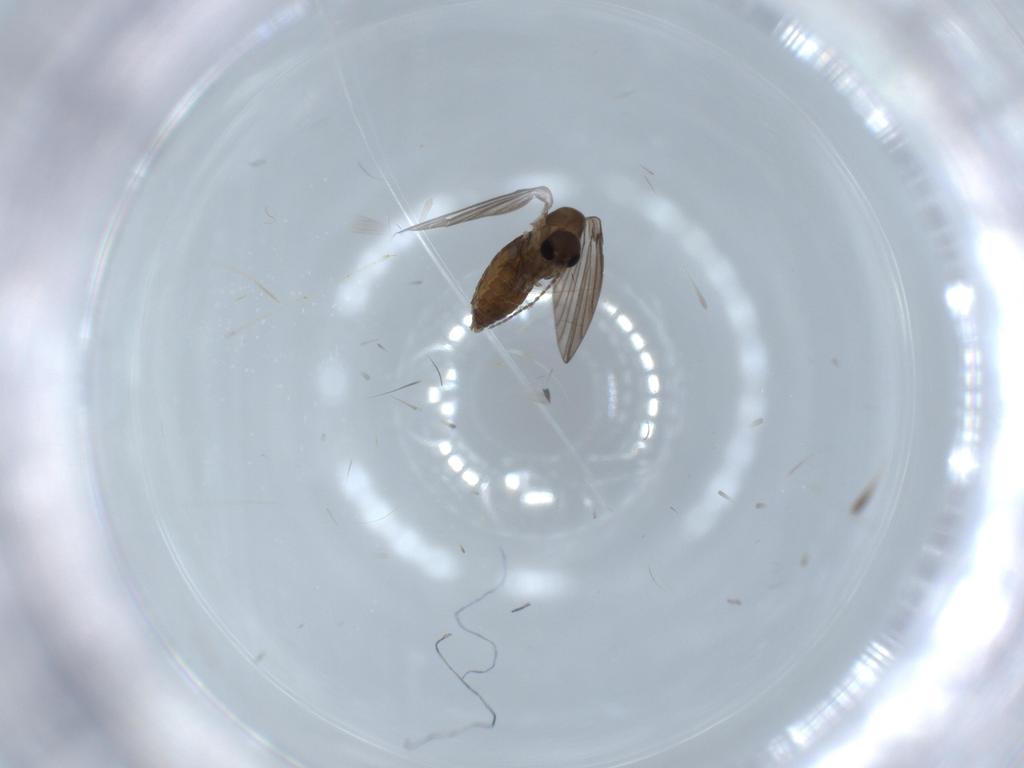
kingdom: Animalia
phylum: Arthropoda
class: Insecta
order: Diptera
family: Psychodidae
